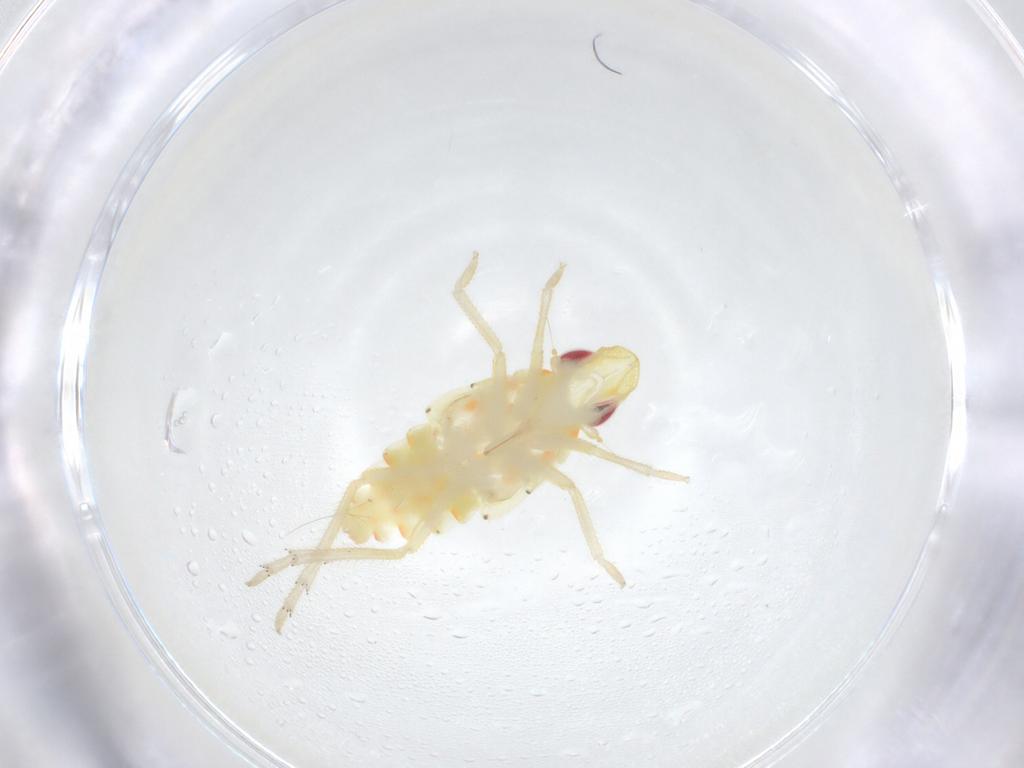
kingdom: Animalia
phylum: Arthropoda
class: Insecta
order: Hemiptera
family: Tropiduchidae
